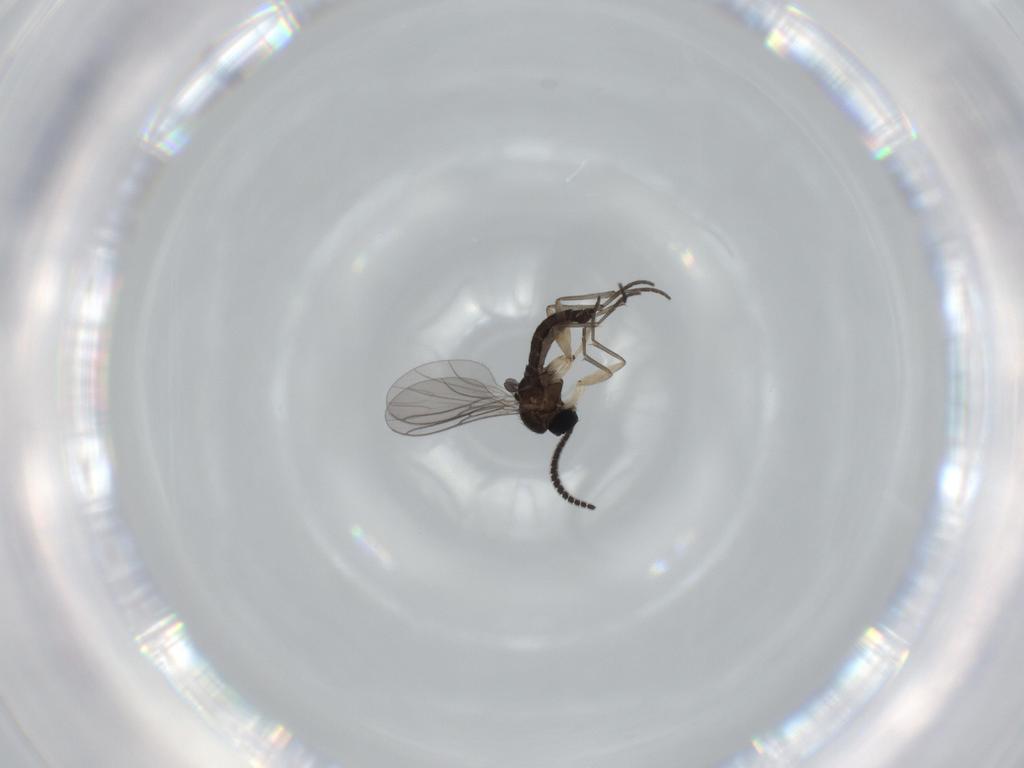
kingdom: Animalia
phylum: Arthropoda
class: Insecta
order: Diptera
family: Sciaridae
